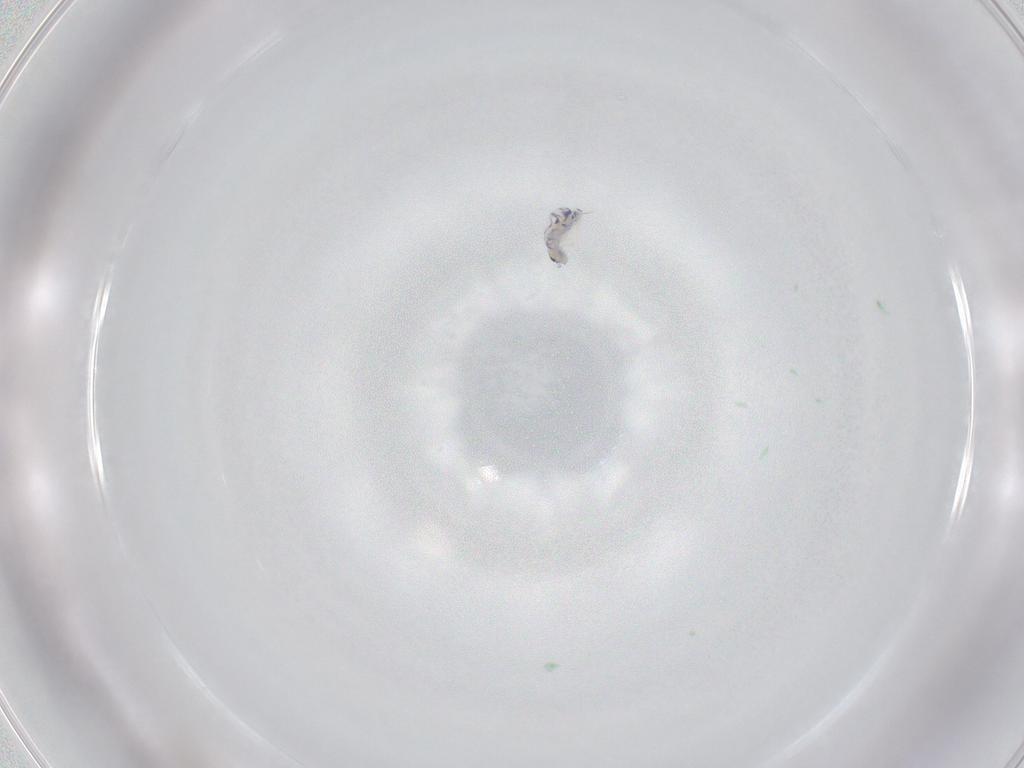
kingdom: Animalia
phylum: Arthropoda
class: Collembola
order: Entomobryomorpha
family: Entomobryidae
